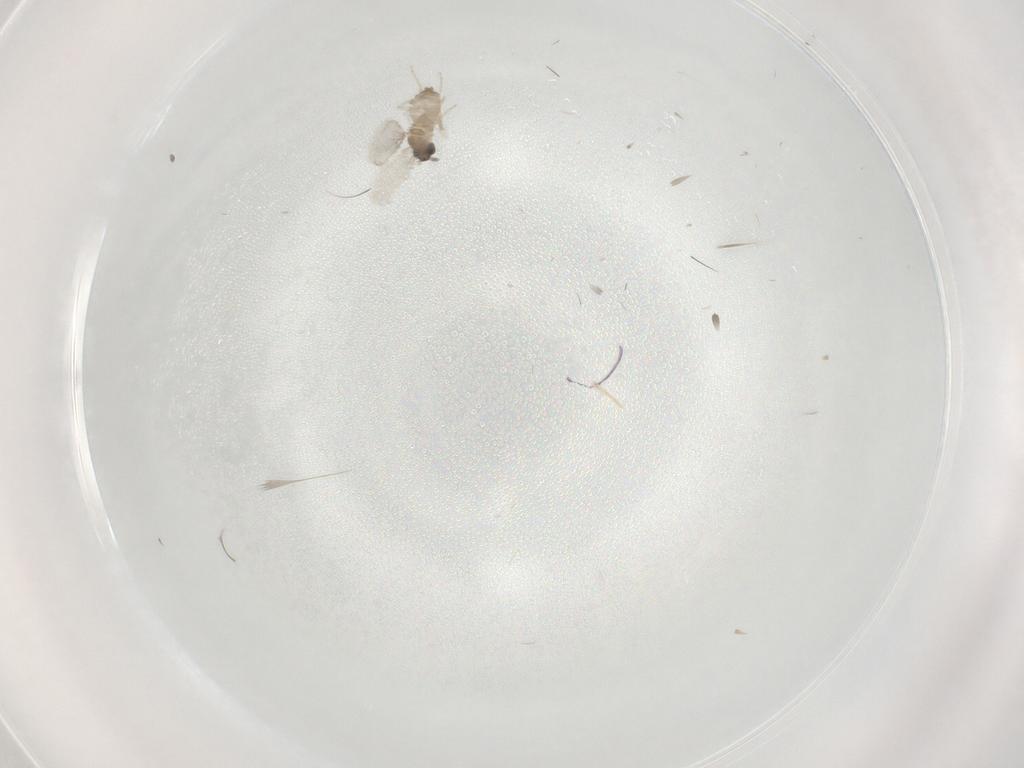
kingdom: Animalia
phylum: Arthropoda
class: Insecta
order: Diptera
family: Cecidomyiidae
